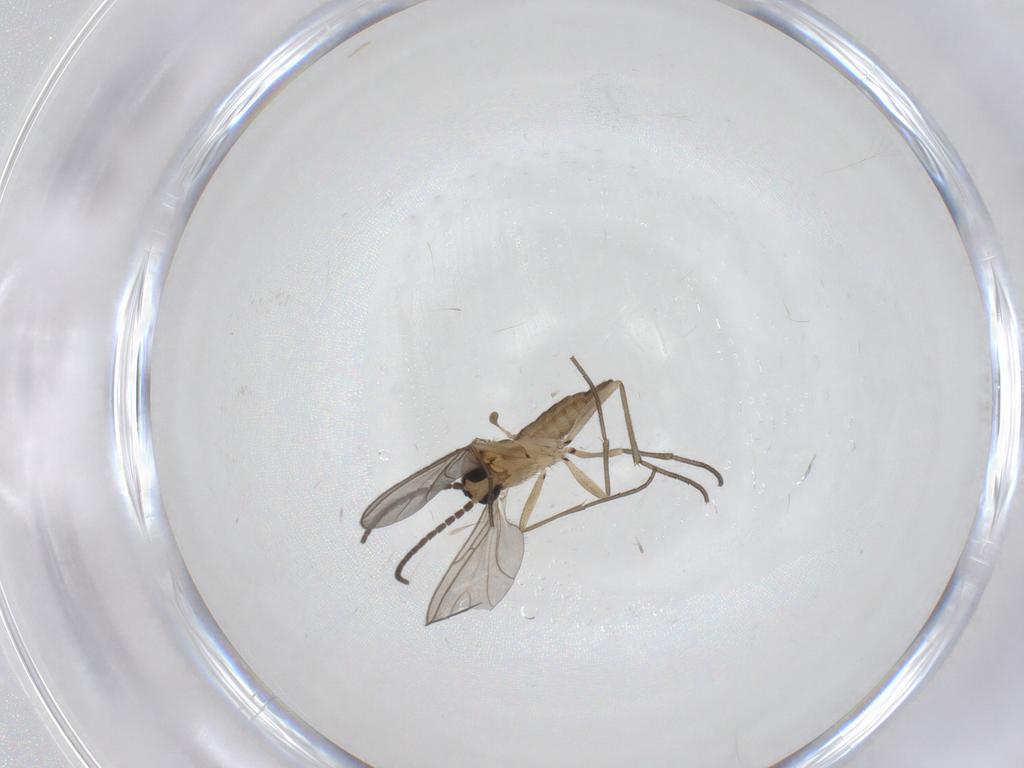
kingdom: Animalia
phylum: Arthropoda
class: Insecta
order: Diptera
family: Sciaridae
